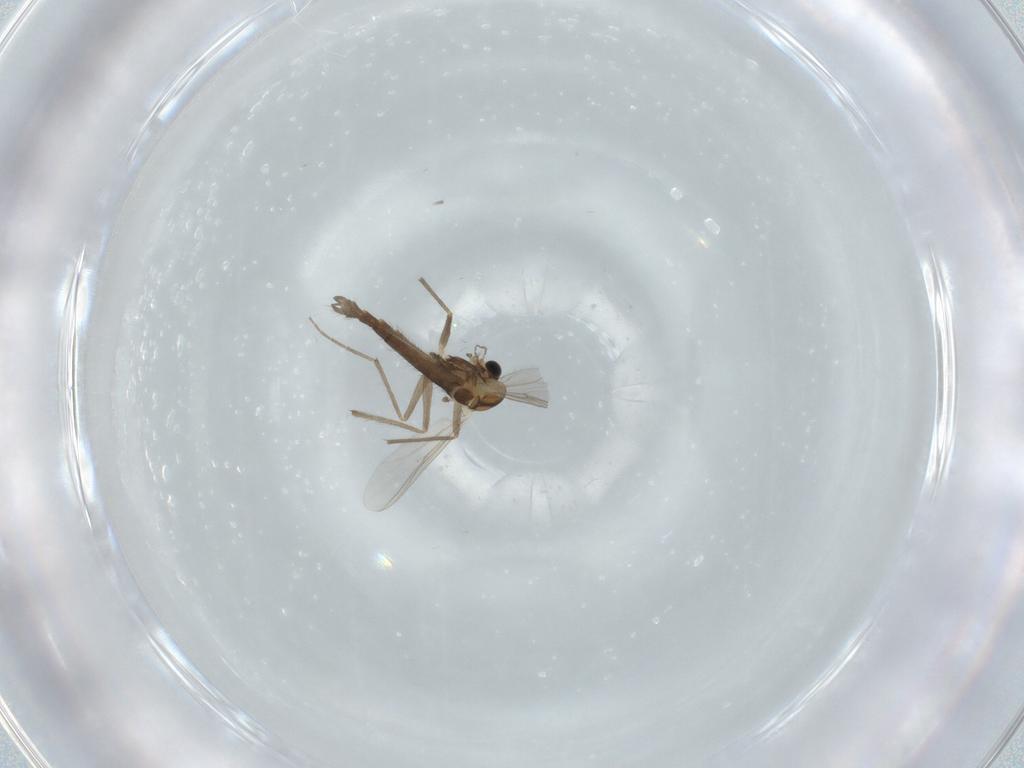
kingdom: Animalia
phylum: Arthropoda
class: Insecta
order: Diptera
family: Chironomidae
